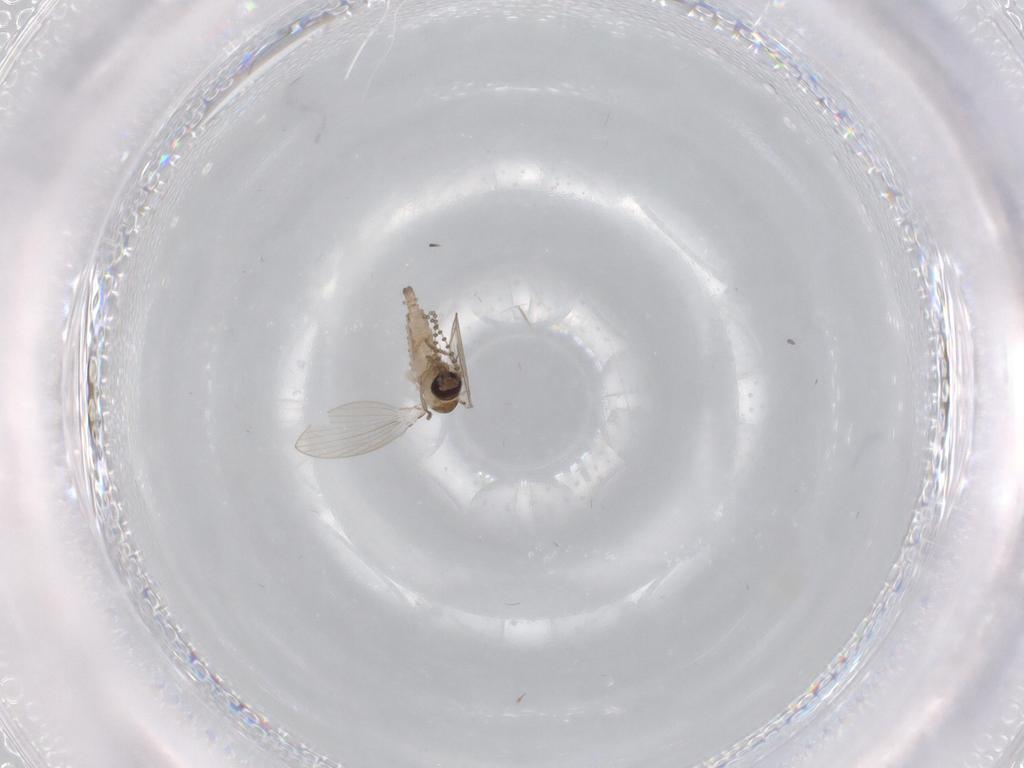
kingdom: Animalia
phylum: Arthropoda
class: Insecta
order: Diptera
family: Psychodidae
